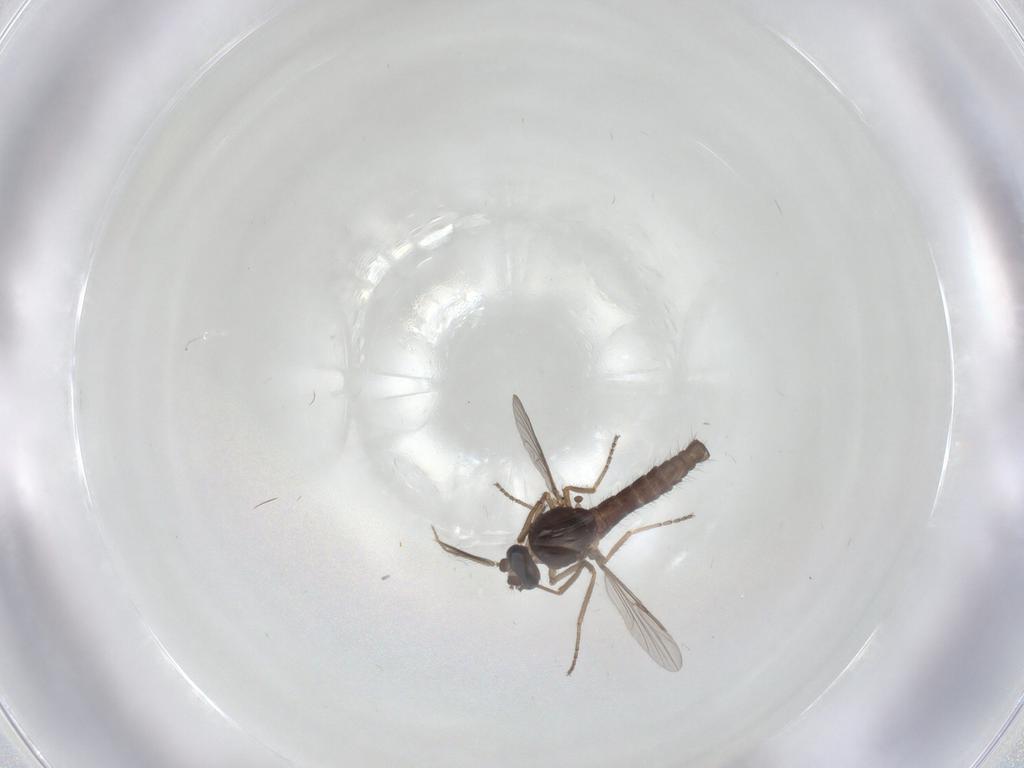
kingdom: Animalia
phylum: Arthropoda
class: Insecta
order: Diptera
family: Ceratopogonidae
